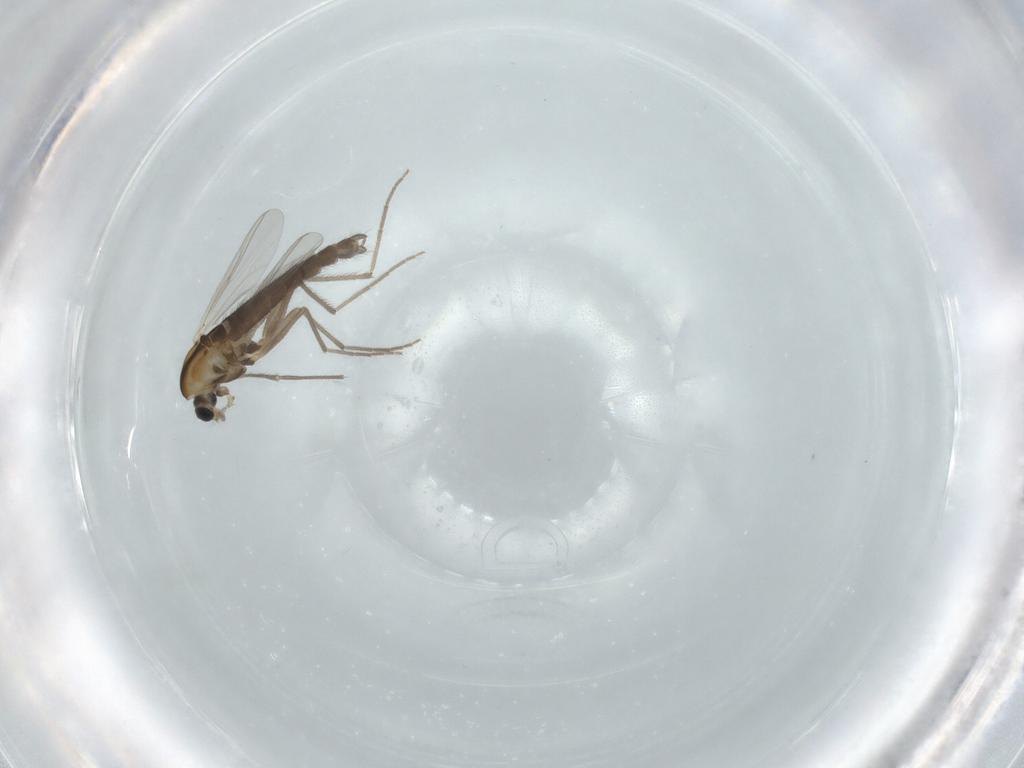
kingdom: Animalia
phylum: Arthropoda
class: Insecta
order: Diptera
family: Chironomidae
